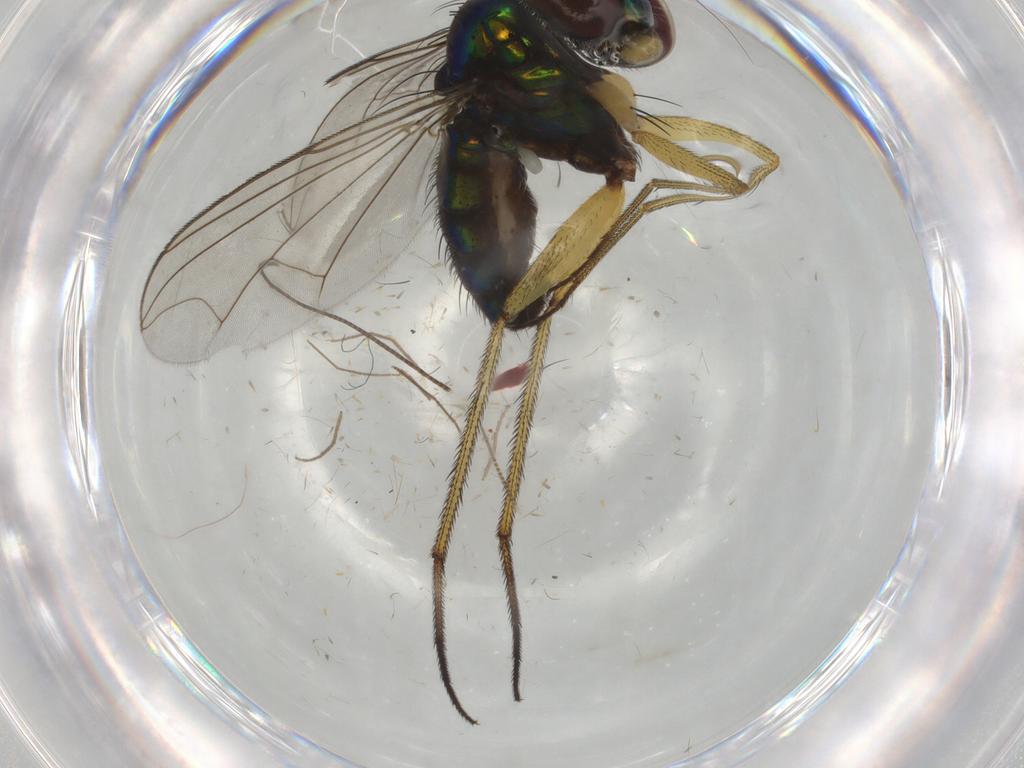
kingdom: Animalia
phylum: Arthropoda
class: Insecta
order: Diptera
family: Dolichopodidae
